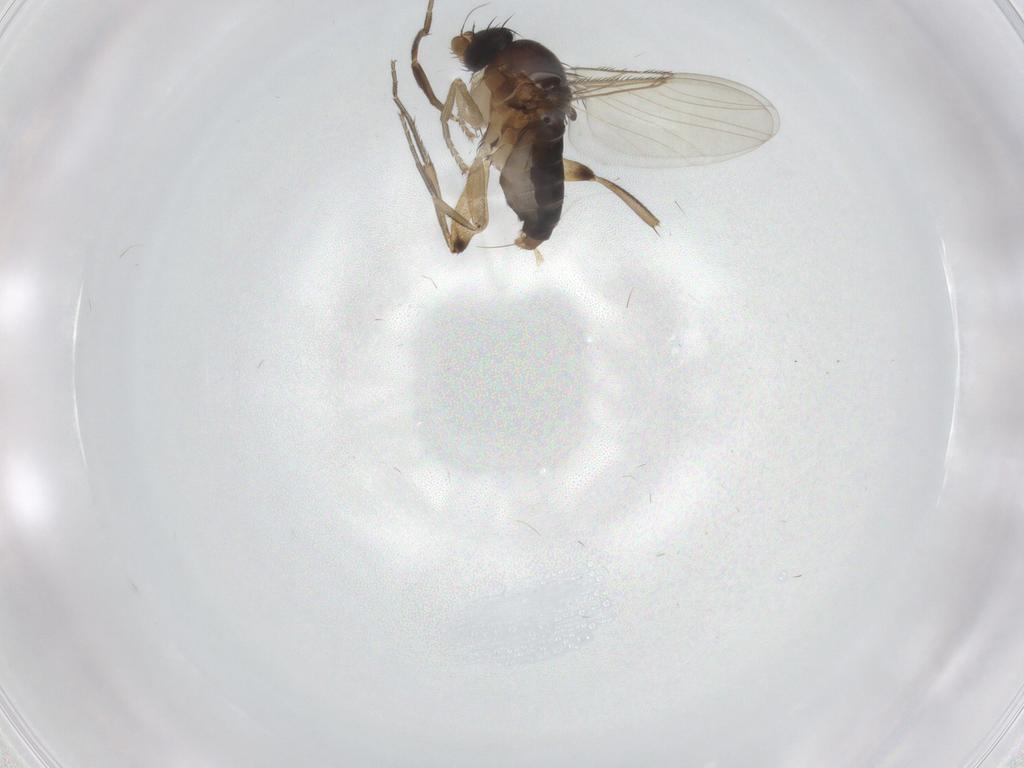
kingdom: Animalia
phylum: Arthropoda
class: Insecta
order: Diptera
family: Phoridae
